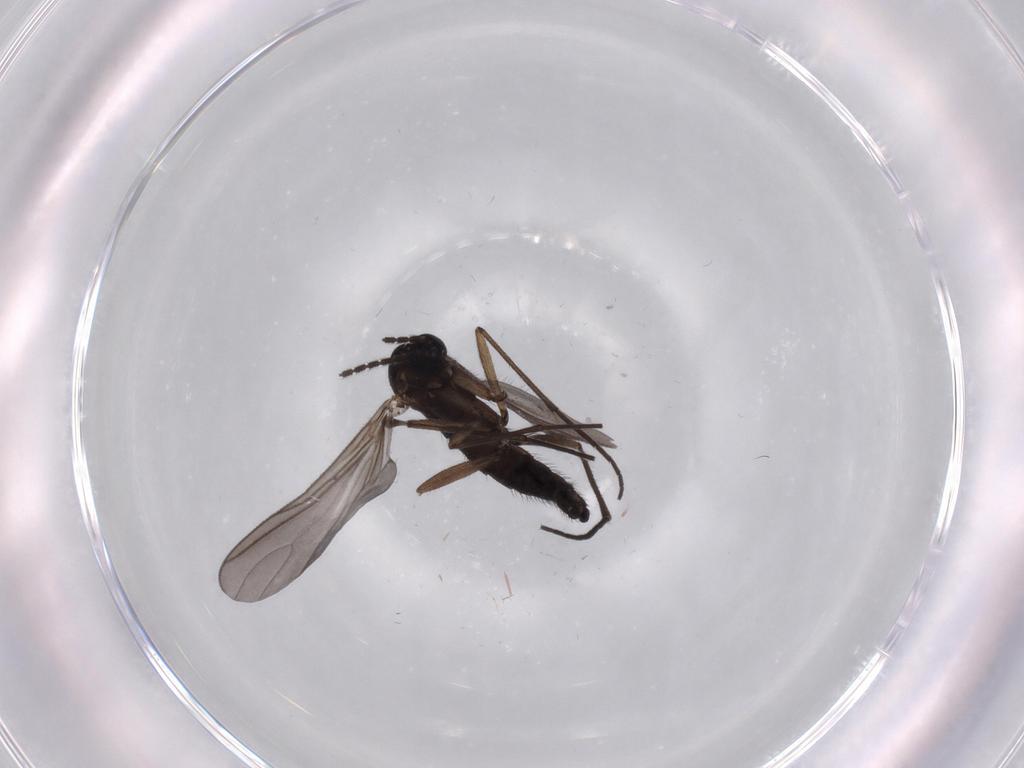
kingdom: Animalia
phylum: Arthropoda
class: Insecta
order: Diptera
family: Sciaridae
